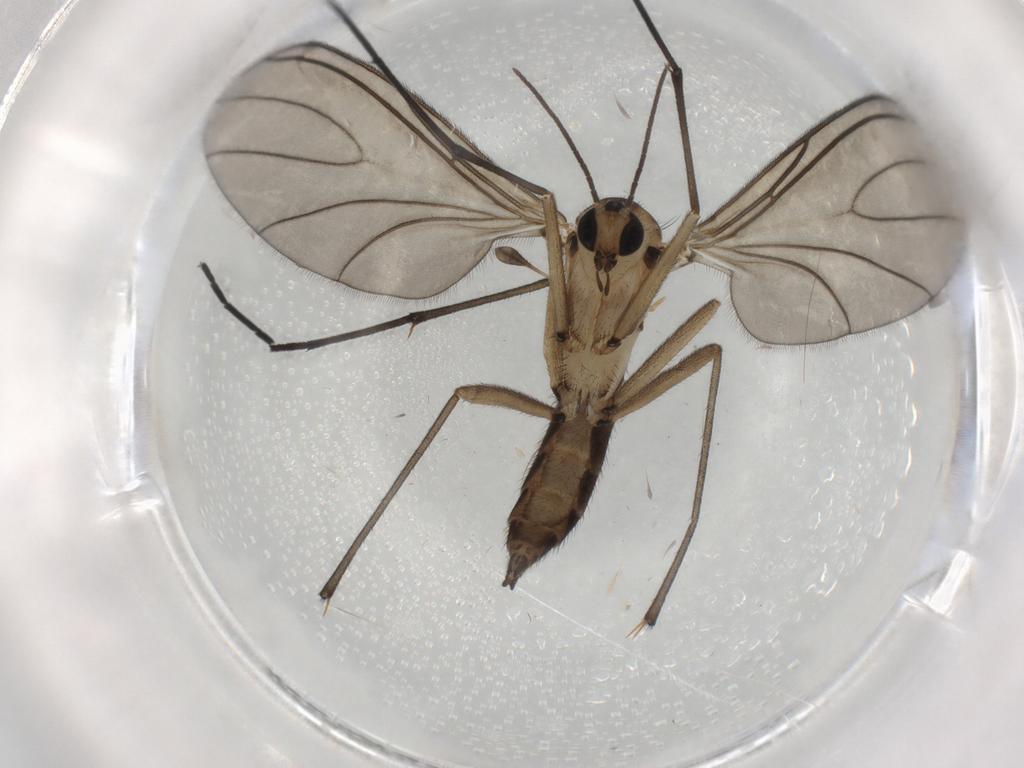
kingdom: Animalia
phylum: Arthropoda
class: Insecta
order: Diptera
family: Sciaridae
